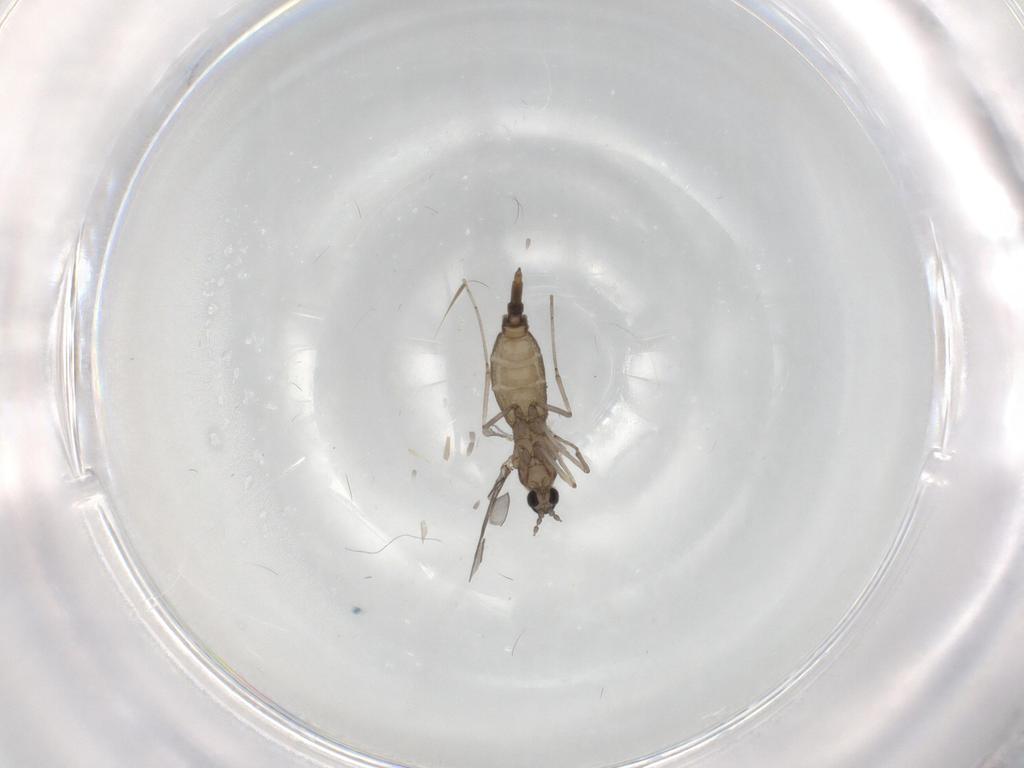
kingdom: Animalia
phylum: Arthropoda
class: Insecta
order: Diptera
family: Cecidomyiidae
